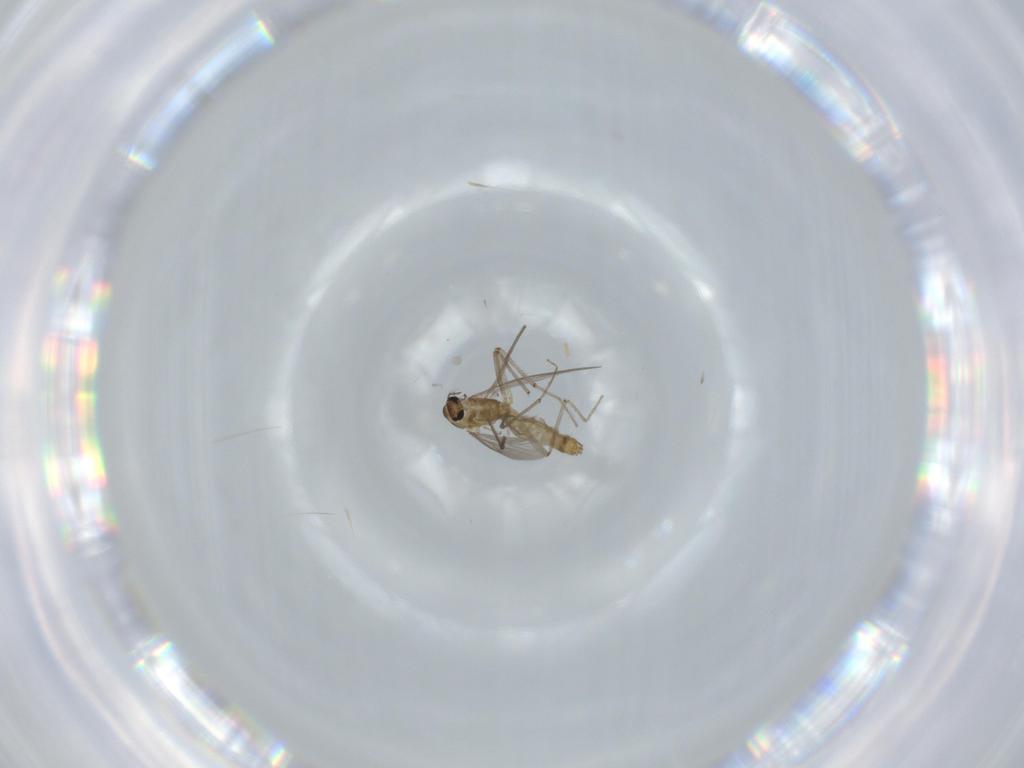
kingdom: Animalia
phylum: Arthropoda
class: Insecta
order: Diptera
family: Chironomidae
